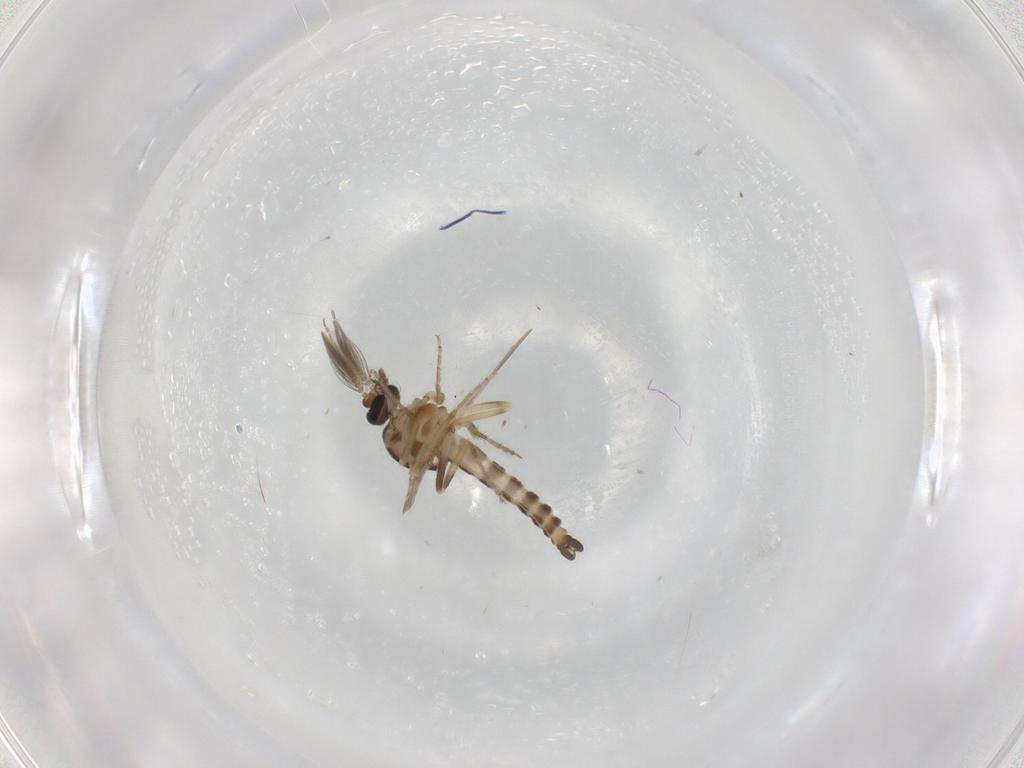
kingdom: Animalia
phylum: Arthropoda
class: Insecta
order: Diptera
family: Ceratopogonidae
